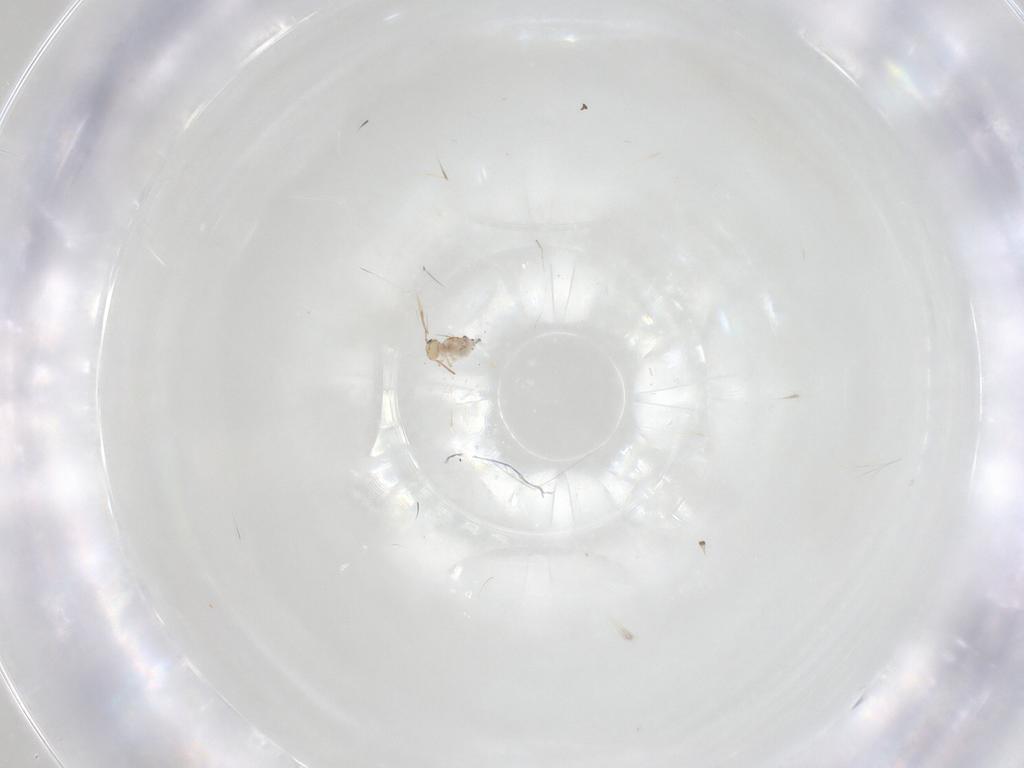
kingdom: Animalia
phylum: Arthropoda
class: Collembola
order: Symphypleona
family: Bourletiellidae
